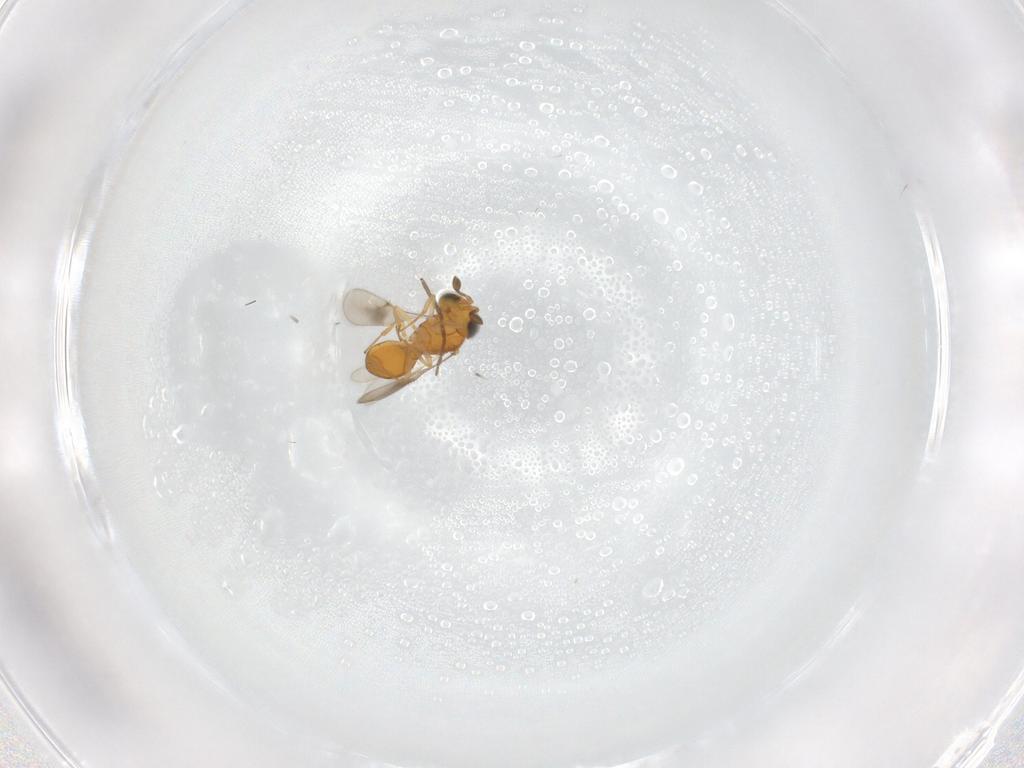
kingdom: Animalia
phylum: Arthropoda
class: Insecta
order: Hymenoptera
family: Scelionidae
